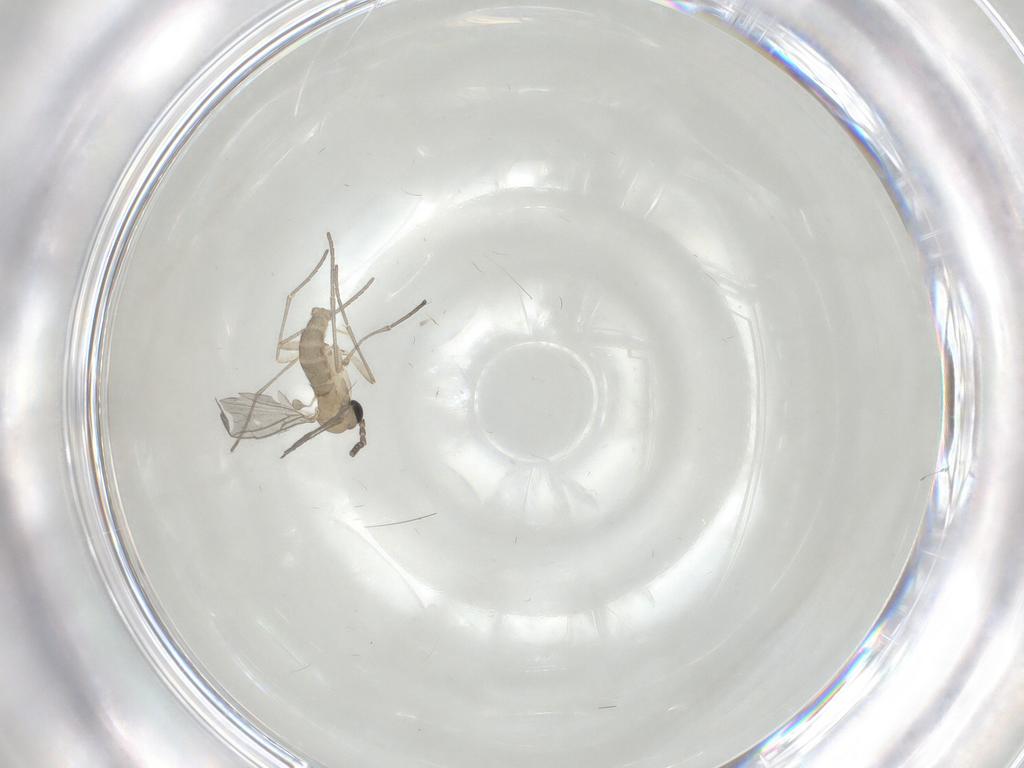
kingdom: Animalia
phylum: Arthropoda
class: Insecta
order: Diptera
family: Sciaridae
